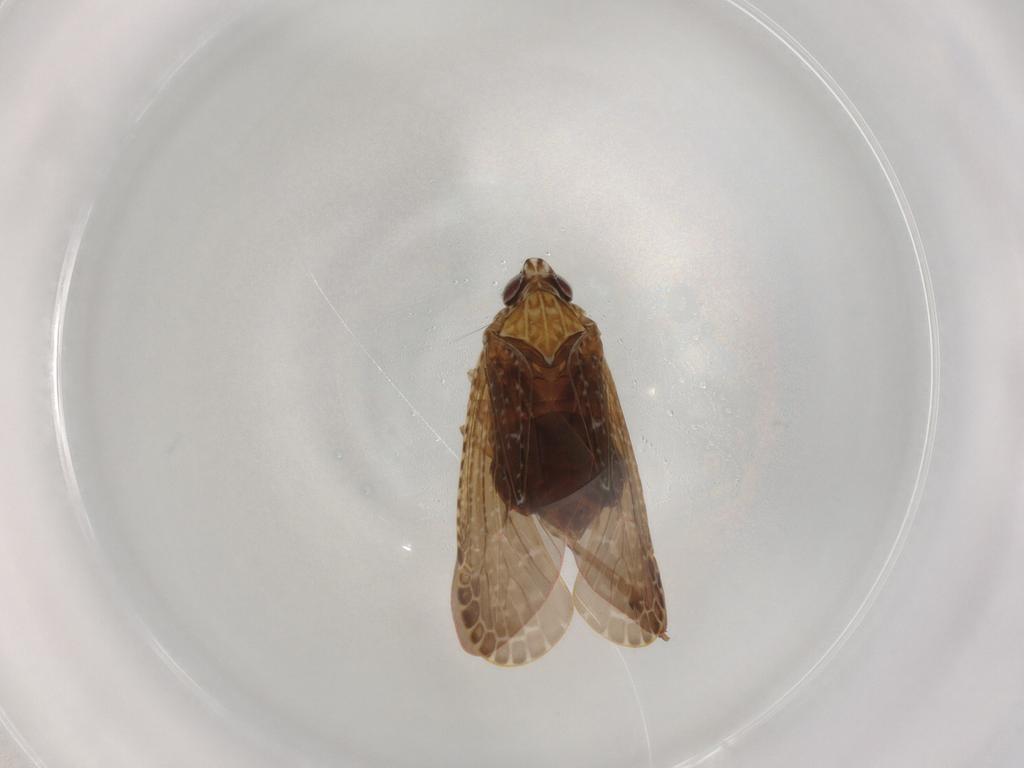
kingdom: Animalia
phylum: Arthropoda
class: Insecta
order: Hemiptera
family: Achilidae
